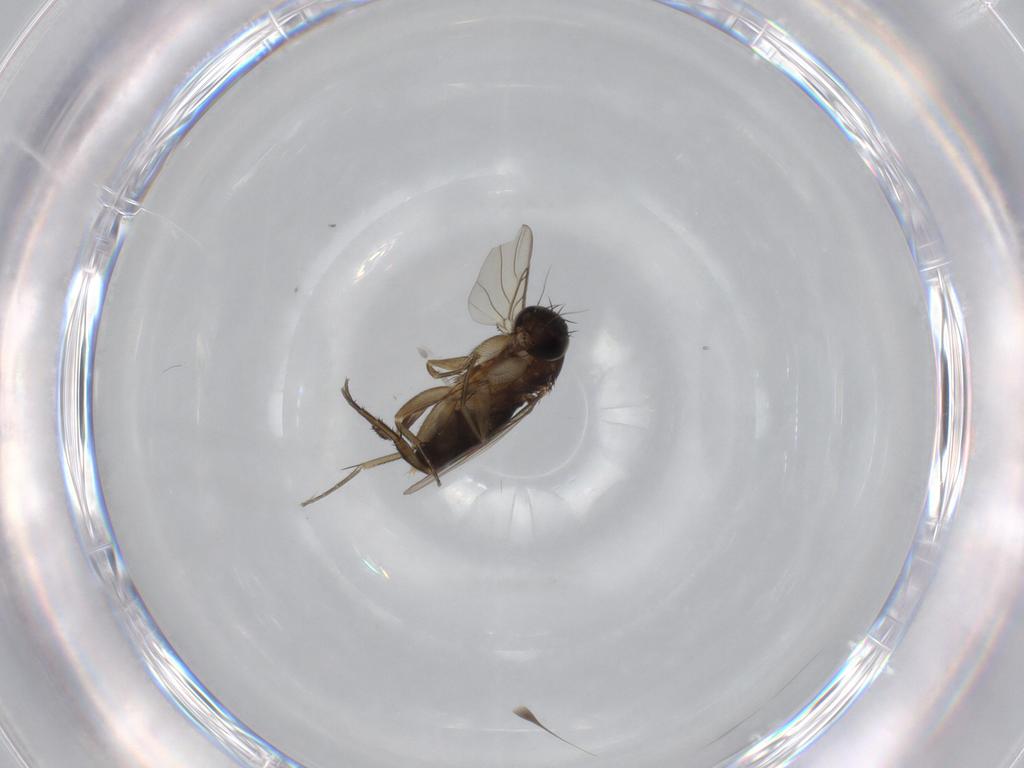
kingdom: Animalia
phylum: Arthropoda
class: Insecta
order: Diptera
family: Phoridae
